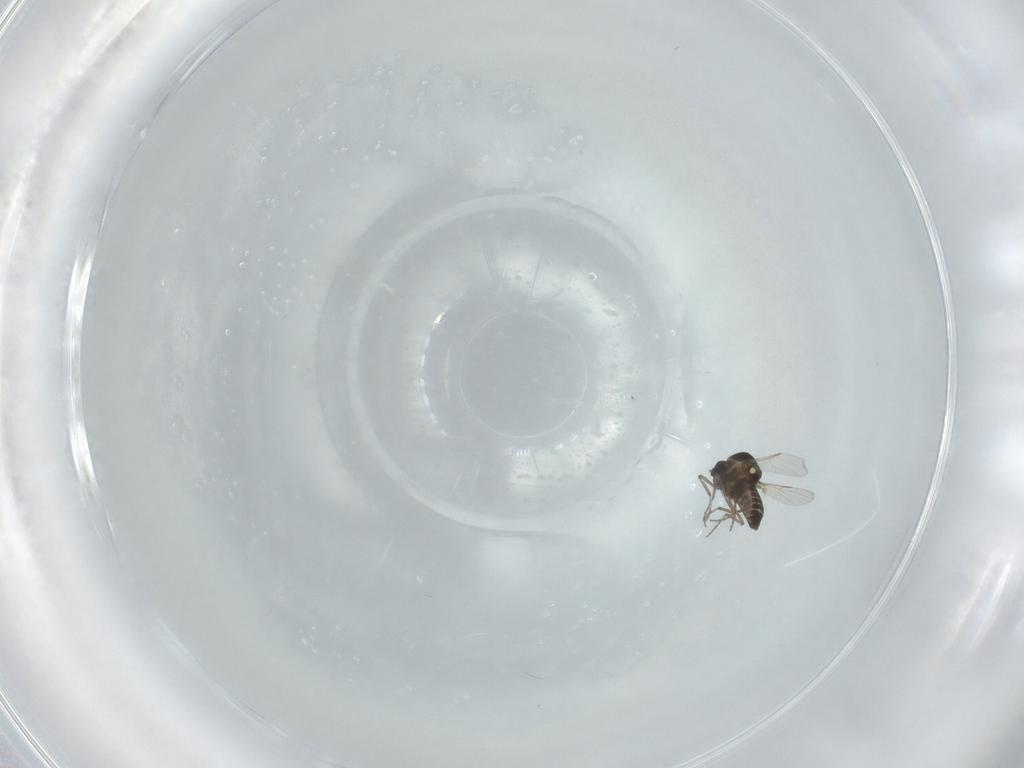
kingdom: Animalia
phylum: Arthropoda
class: Insecta
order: Diptera
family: Ceratopogonidae
